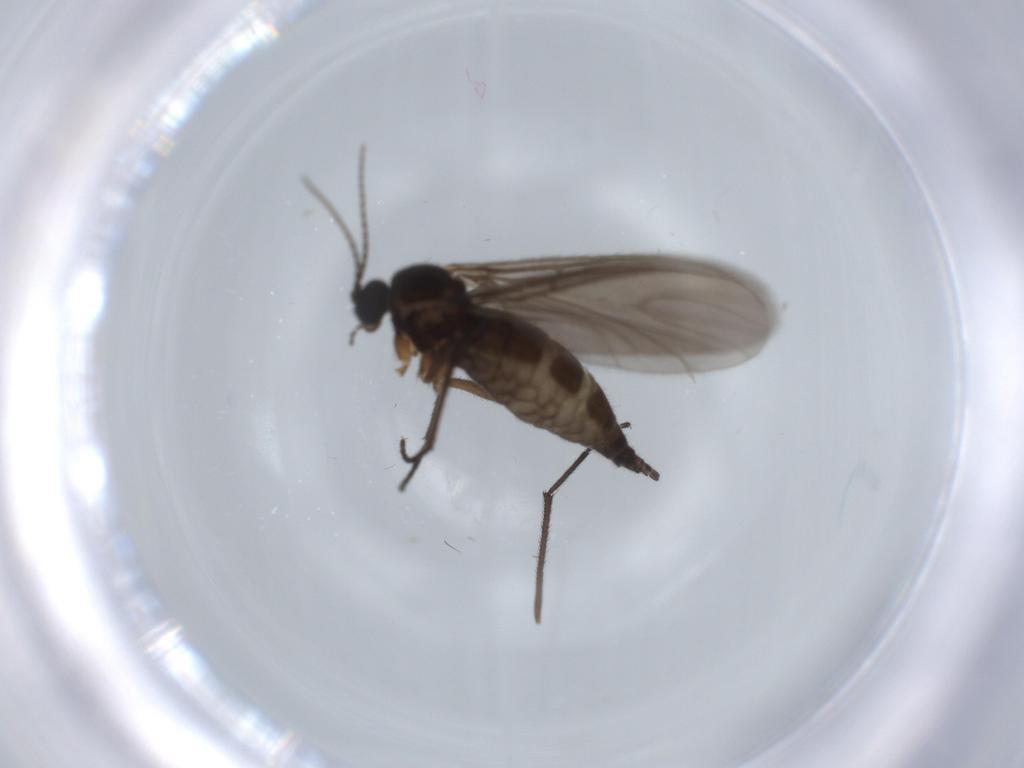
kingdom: Animalia
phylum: Arthropoda
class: Insecta
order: Diptera
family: Sciaridae
